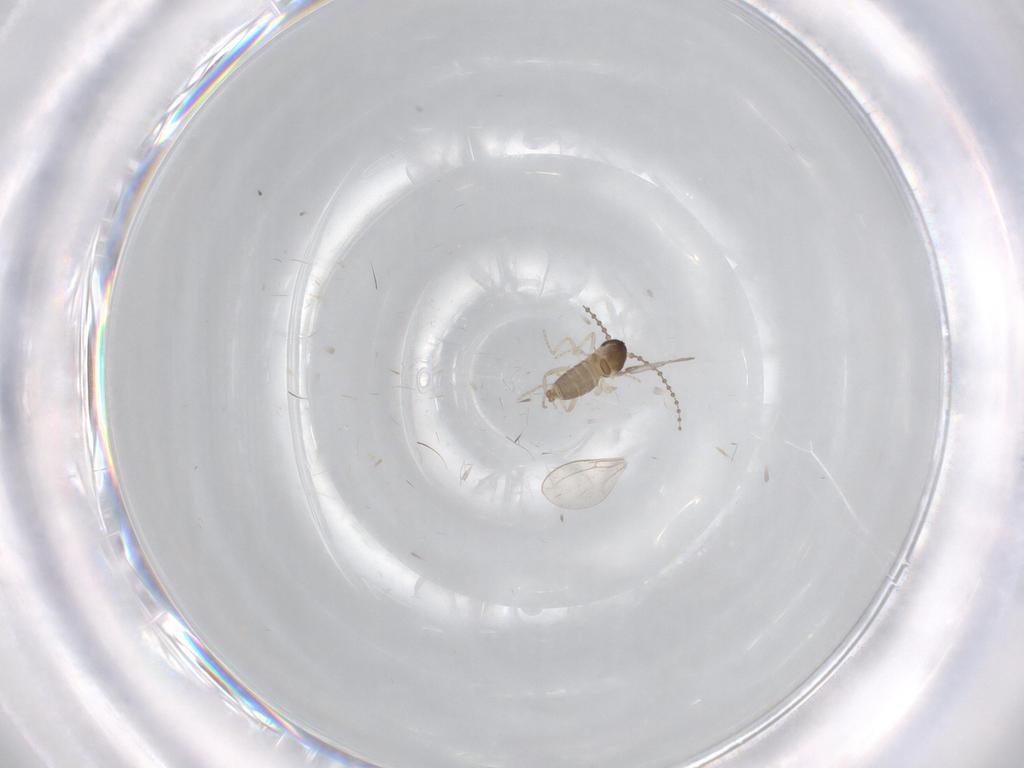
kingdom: Animalia
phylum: Arthropoda
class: Insecta
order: Diptera
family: Cecidomyiidae
